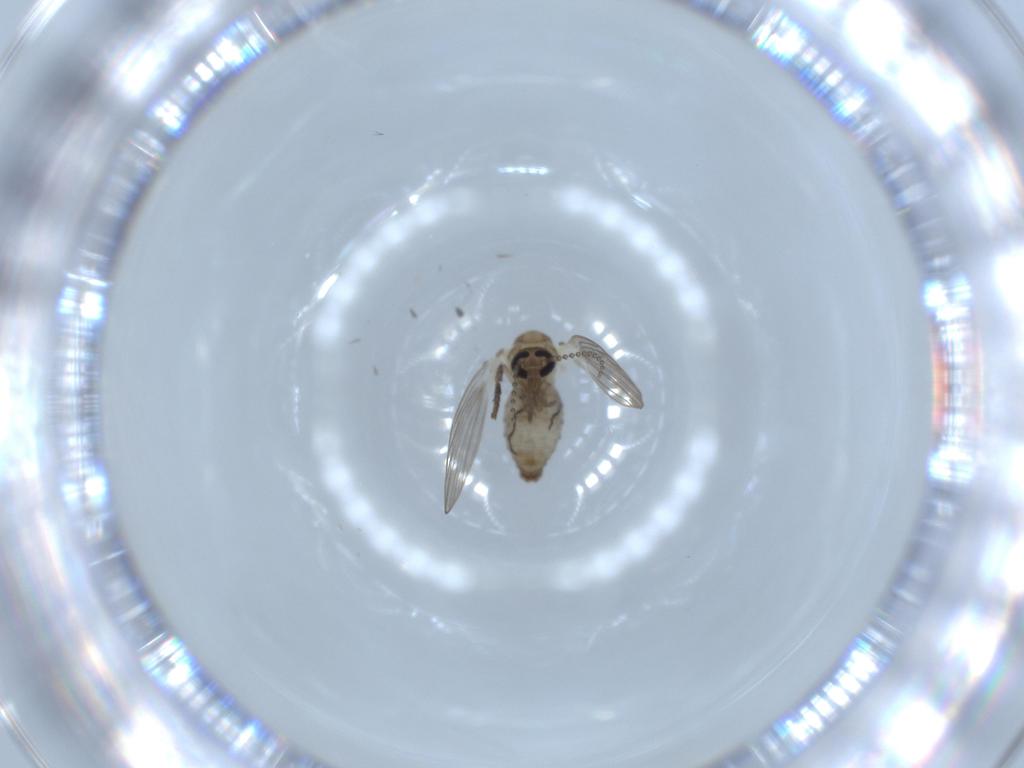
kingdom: Animalia
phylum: Arthropoda
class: Insecta
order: Diptera
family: Psychodidae
